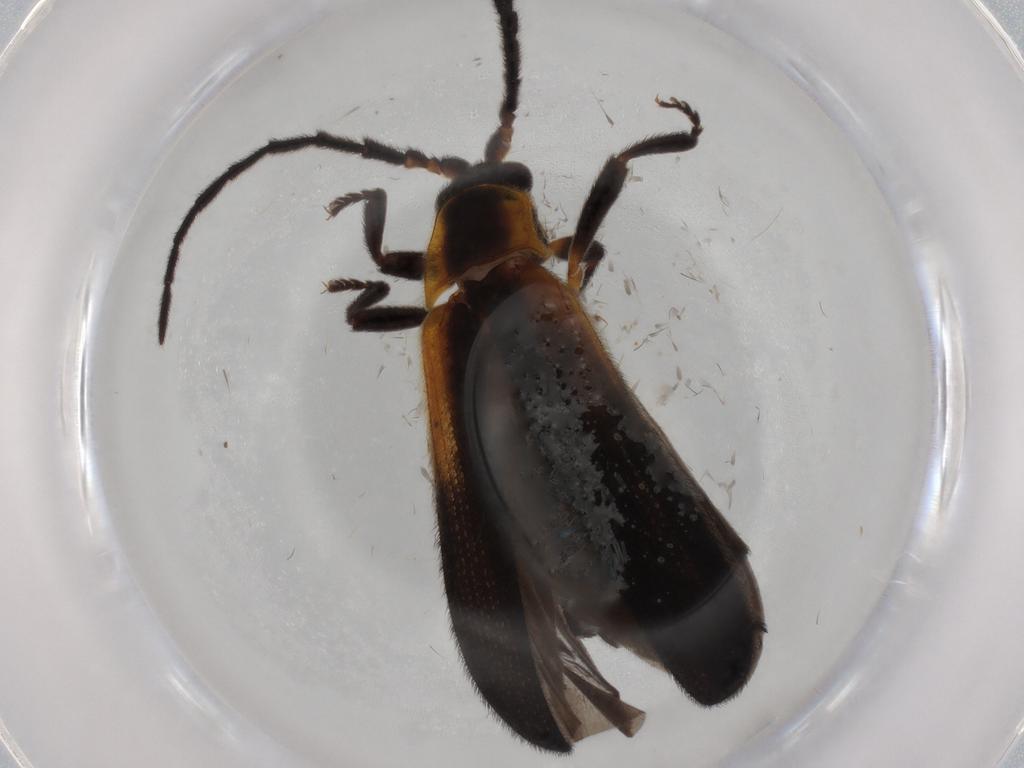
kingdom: Animalia
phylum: Arthropoda
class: Insecta
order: Coleoptera
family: Lycidae
